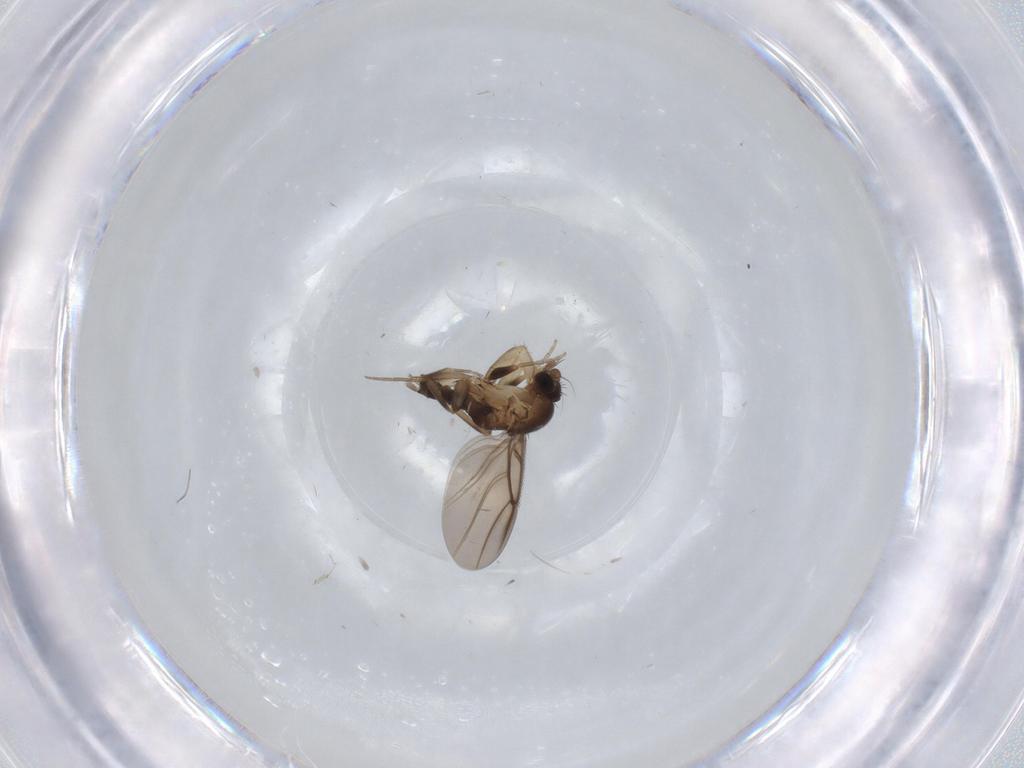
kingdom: Animalia
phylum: Arthropoda
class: Insecta
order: Diptera
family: Phoridae
